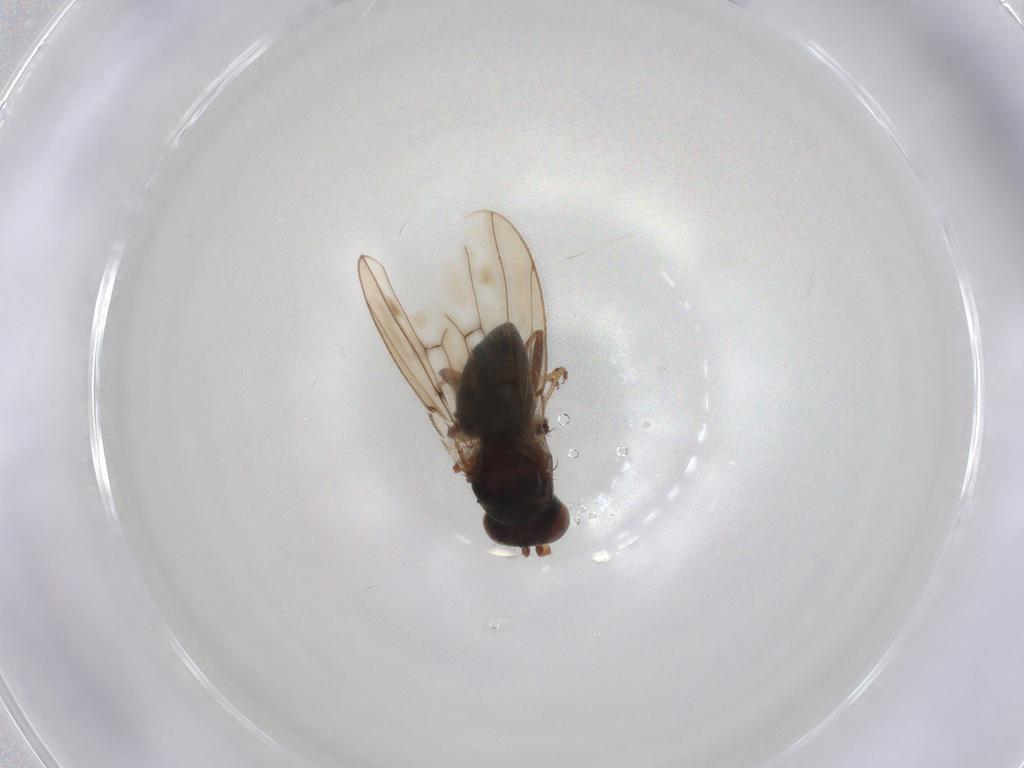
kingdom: Animalia
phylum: Arthropoda
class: Insecta
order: Diptera
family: Ephydridae
